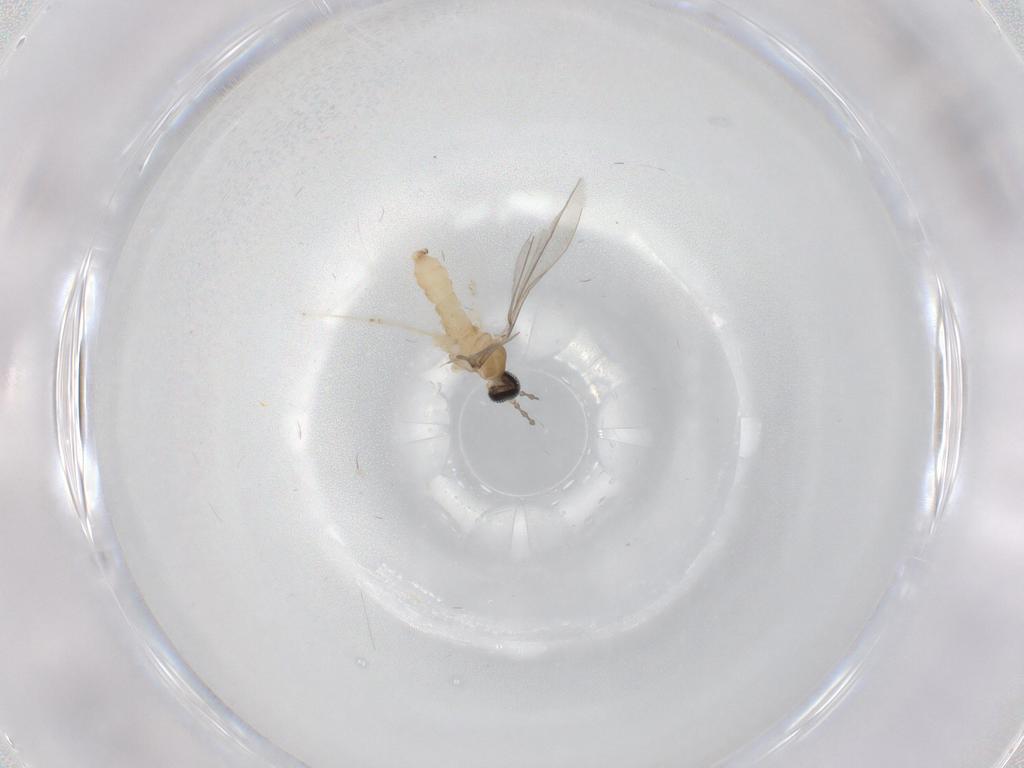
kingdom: Animalia
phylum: Arthropoda
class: Insecta
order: Diptera
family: Cecidomyiidae
